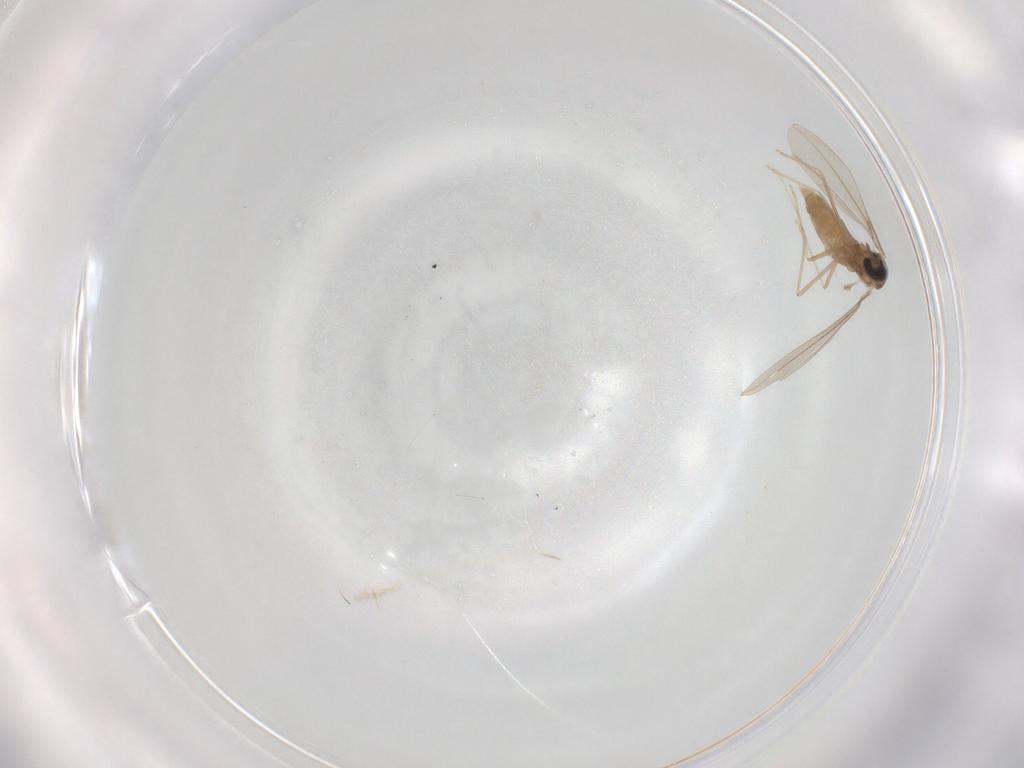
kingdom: Animalia
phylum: Arthropoda
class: Insecta
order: Diptera
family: Cecidomyiidae
